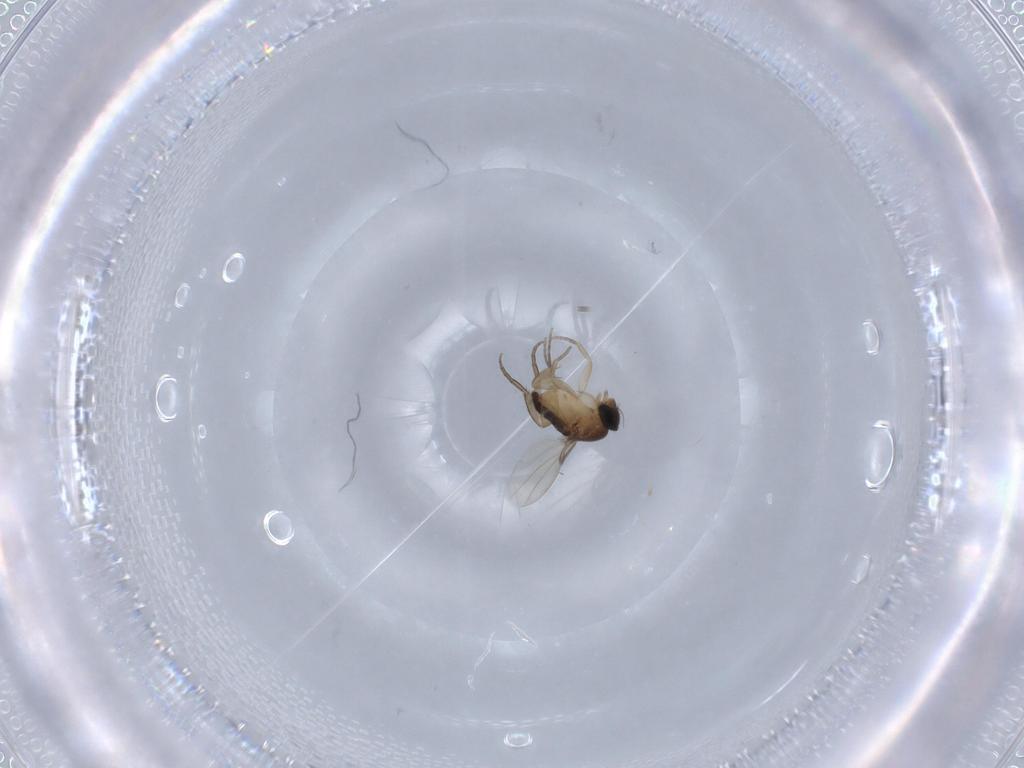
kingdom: Animalia
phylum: Arthropoda
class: Insecta
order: Diptera
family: Phoridae
